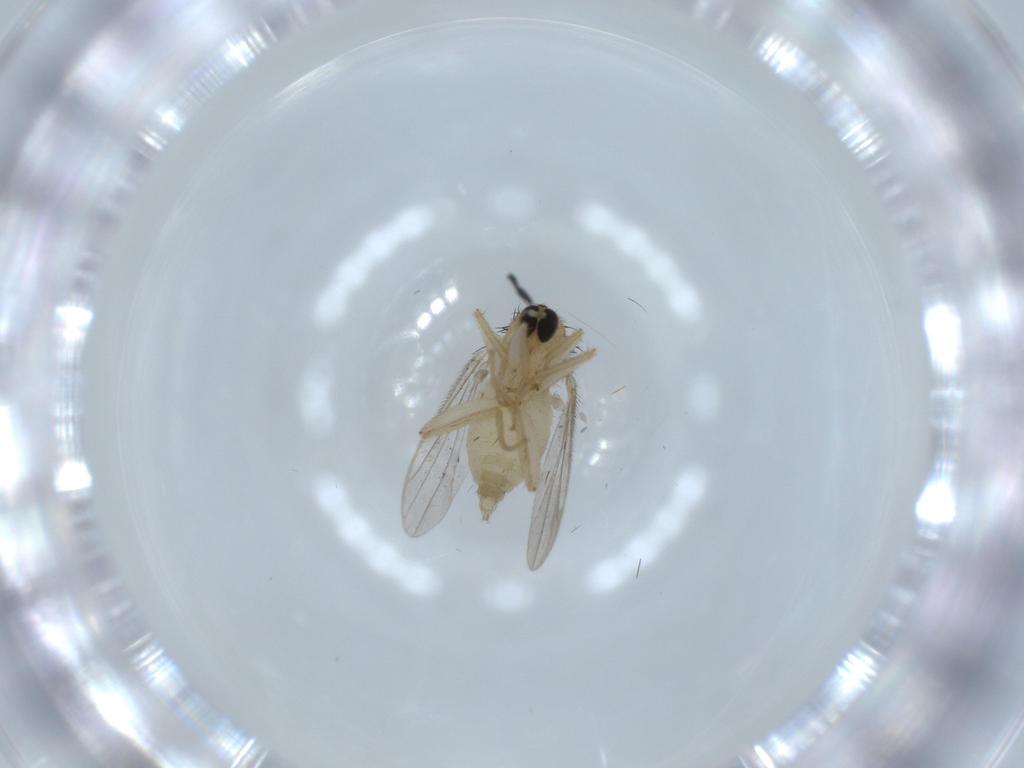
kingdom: Animalia
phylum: Arthropoda
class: Insecta
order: Diptera
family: Hybotidae
